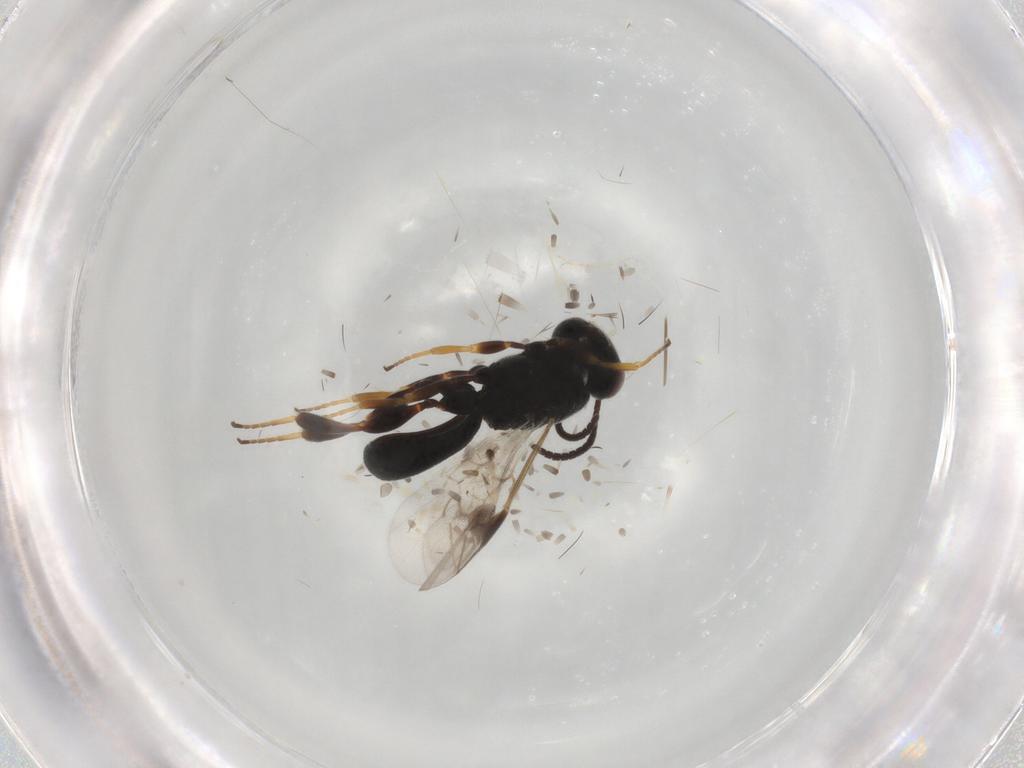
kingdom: Animalia
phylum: Arthropoda
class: Insecta
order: Hymenoptera
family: Braconidae
